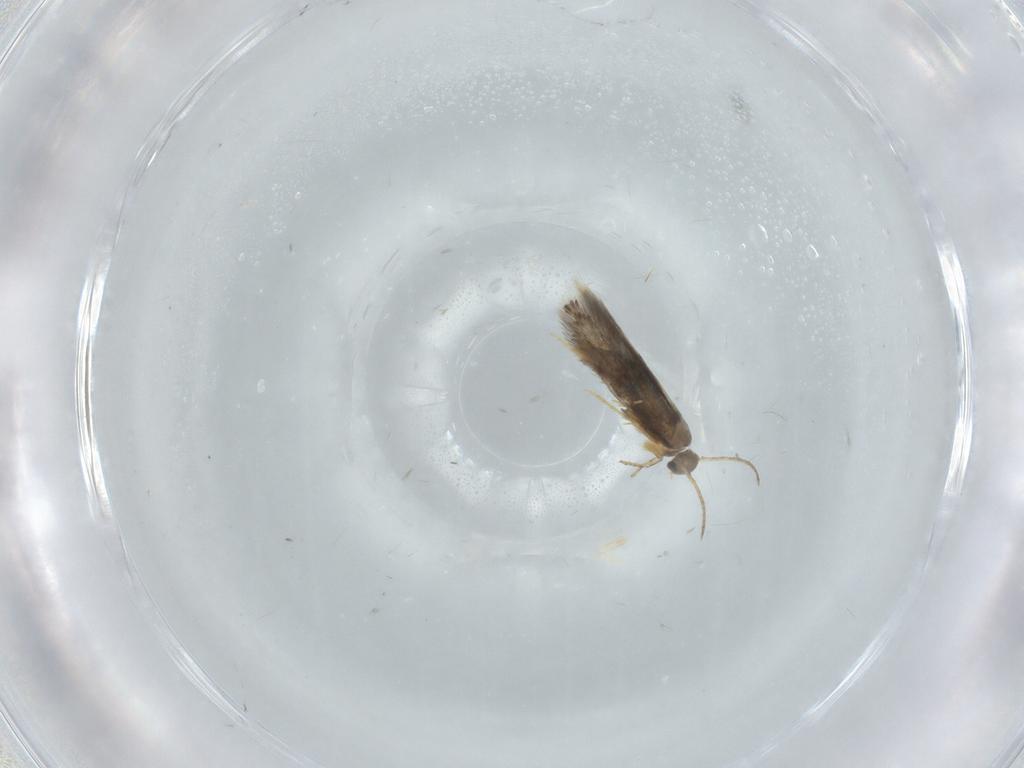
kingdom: Animalia
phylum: Arthropoda
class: Insecta
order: Lepidoptera
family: Heliozelidae
